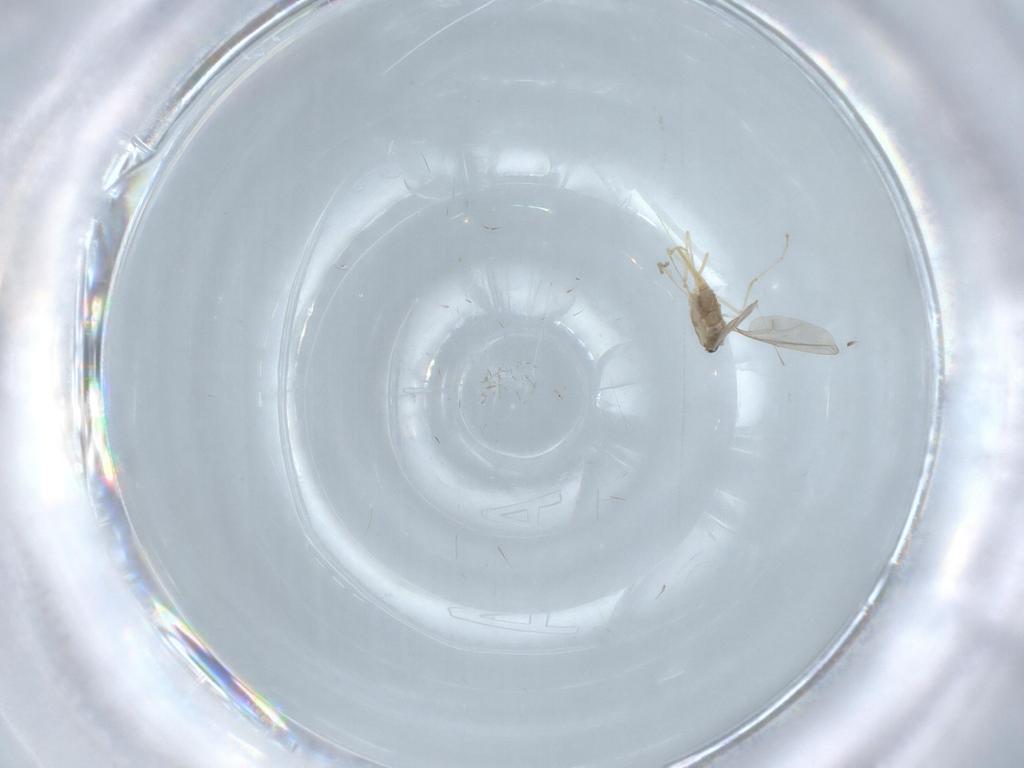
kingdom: Animalia
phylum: Arthropoda
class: Insecta
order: Diptera
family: Cecidomyiidae
